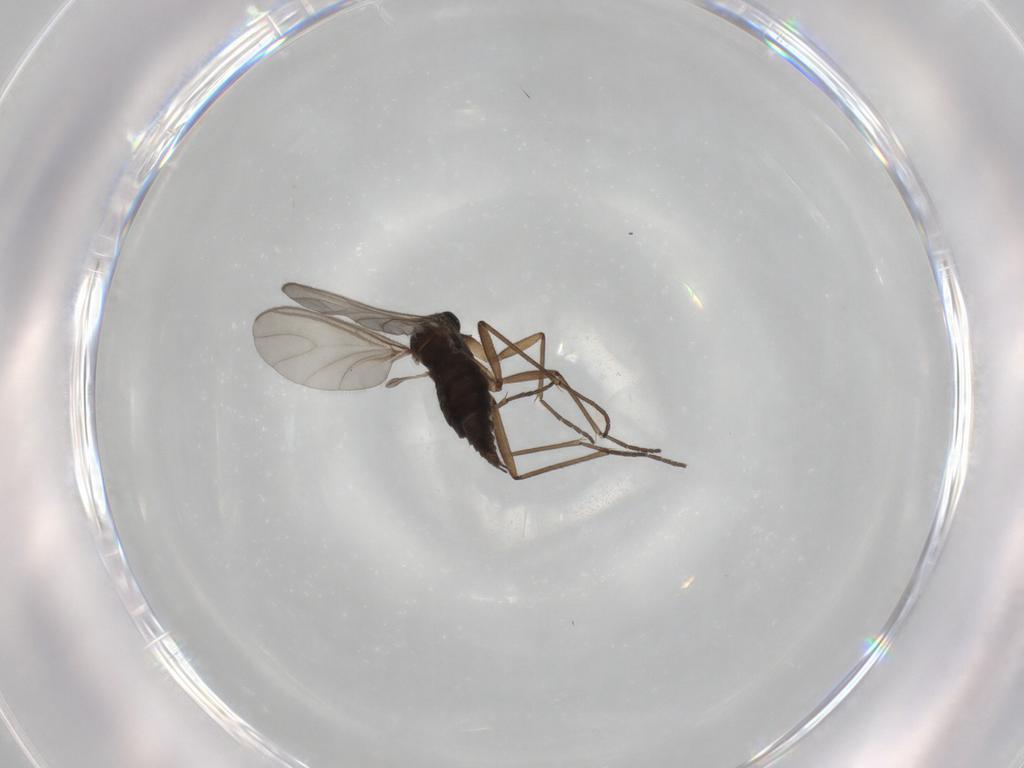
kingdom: Animalia
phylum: Arthropoda
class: Insecta
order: Diptera
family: Sciaridae
